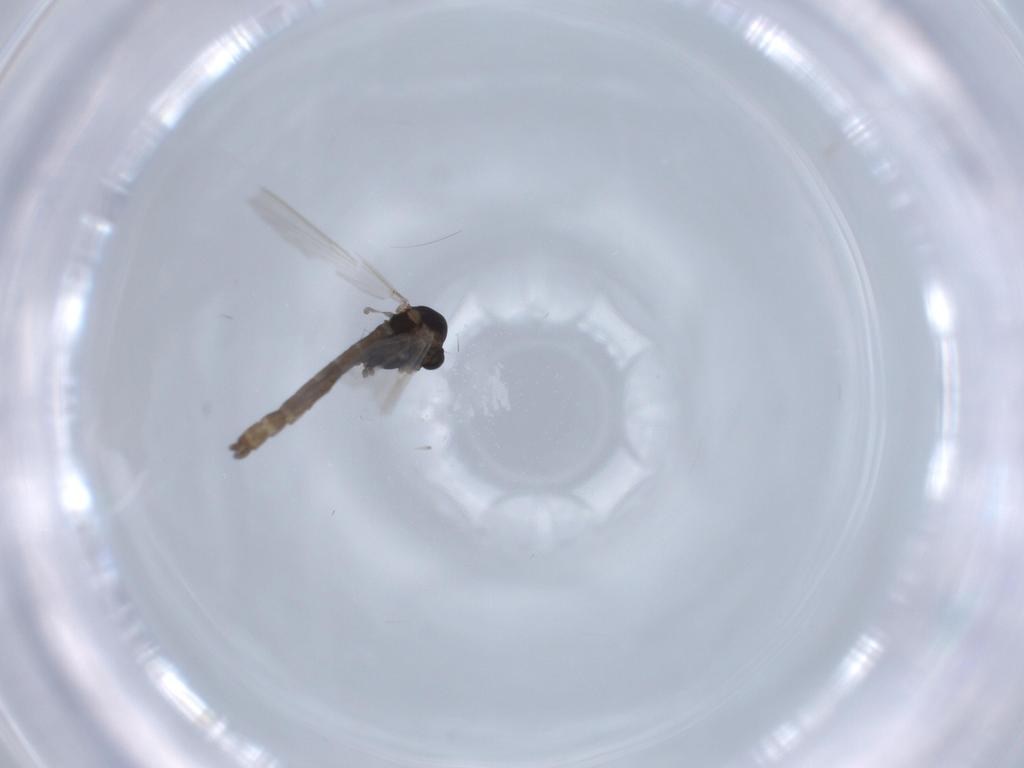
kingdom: Animalia
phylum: Arthropoda
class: Insecta
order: Diptera
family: Chironomidae
